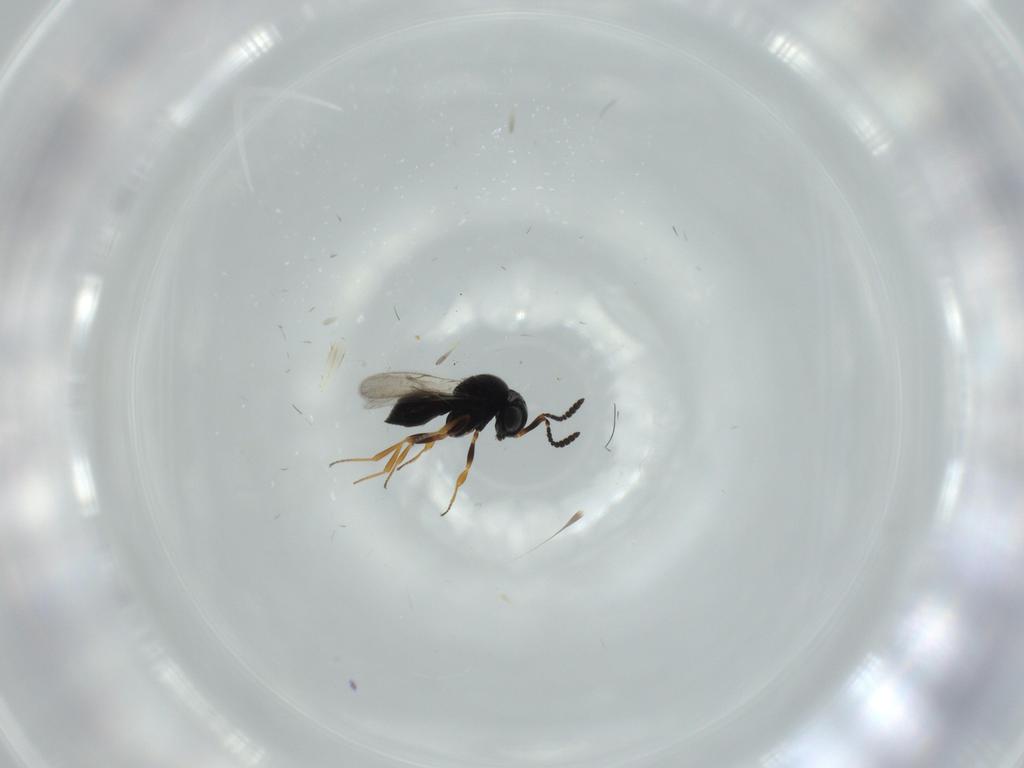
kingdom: Animalia
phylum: Arthropoda
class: Insecta
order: Hymenoptera
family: Scelionidae
